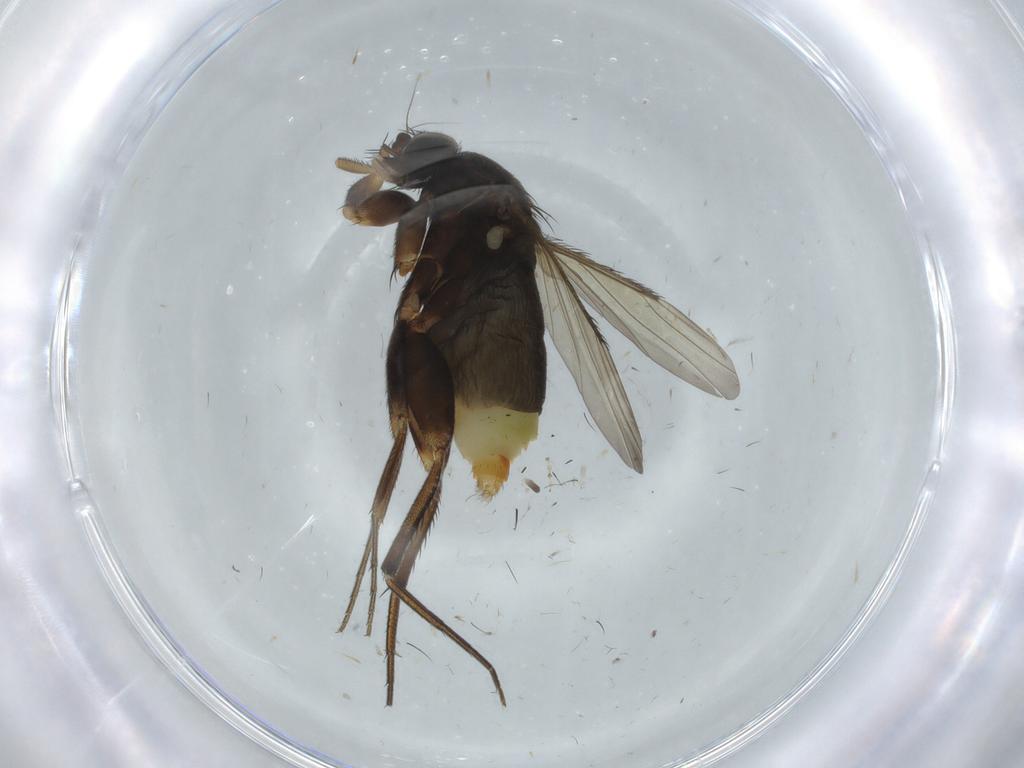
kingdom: Animalia
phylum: Arthropoda
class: Insecta
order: Diptera
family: Phoridae
